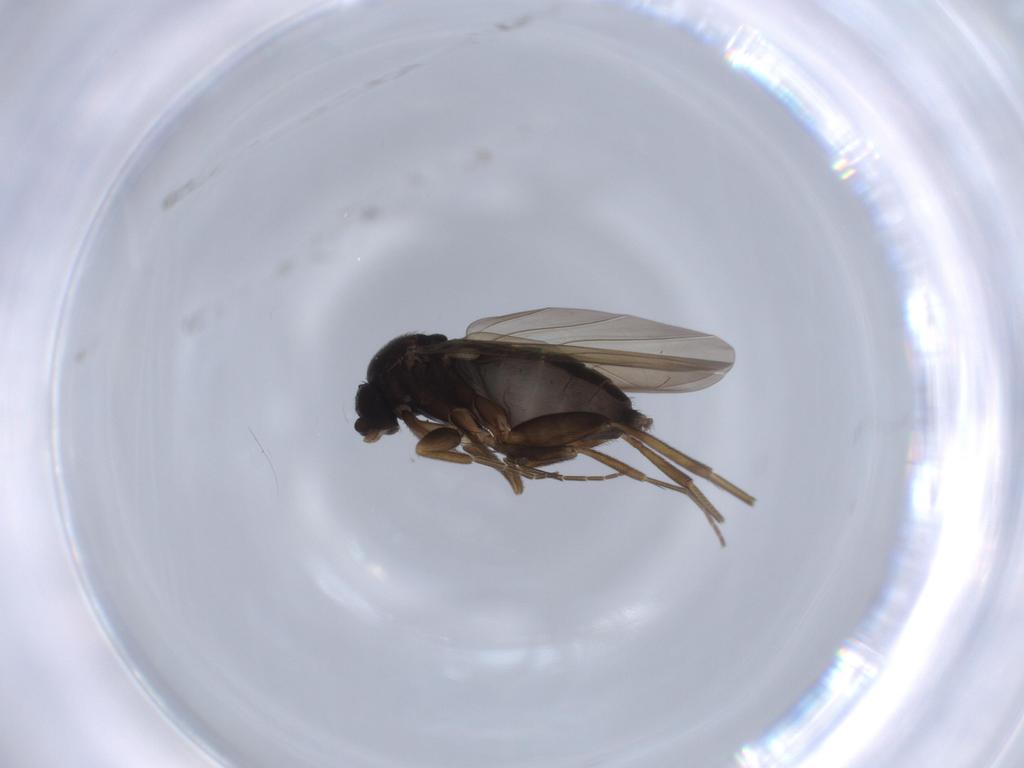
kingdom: Animalia
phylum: Arthropoda
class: Insecta
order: Diptera
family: Phoridae
